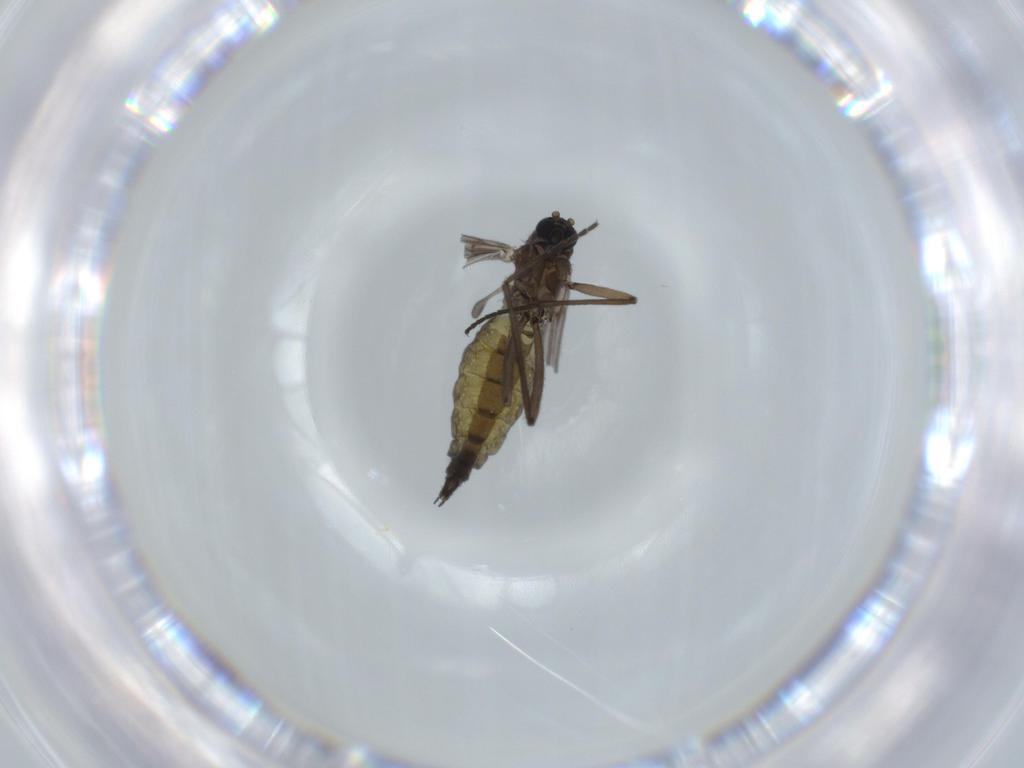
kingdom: Animalia
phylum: Arthropoda
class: Insecta
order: Diptera
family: Sciaridae
